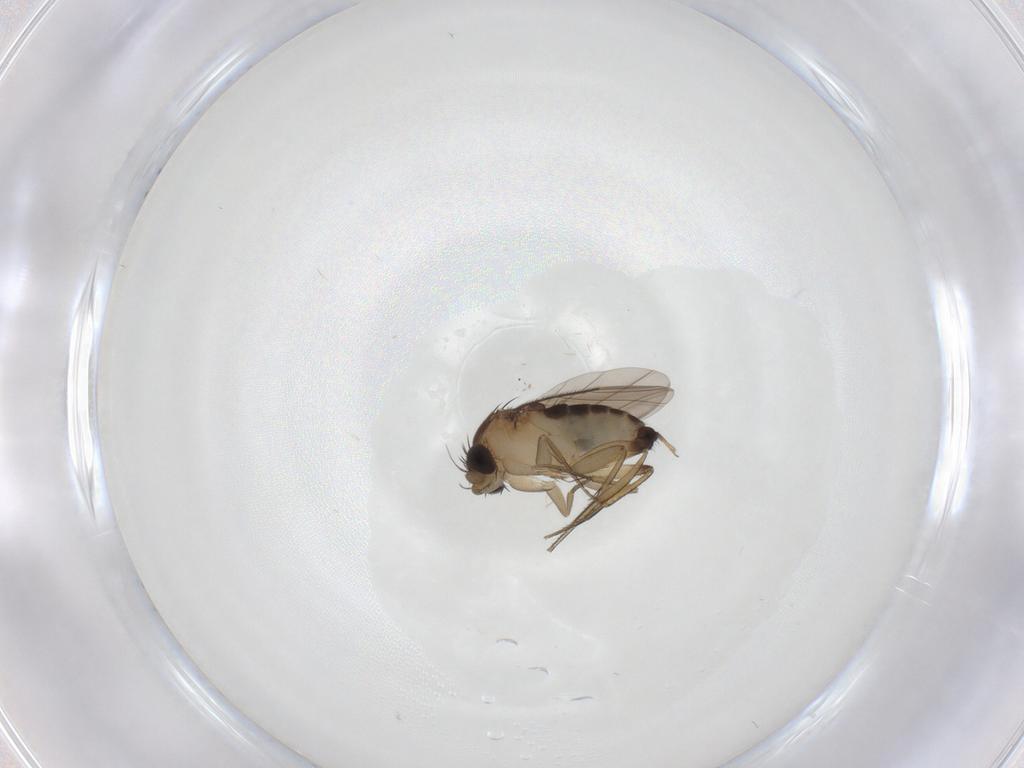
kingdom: Animalia
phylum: Arthropoda
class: Insecta
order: Diptera
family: Phoridae
